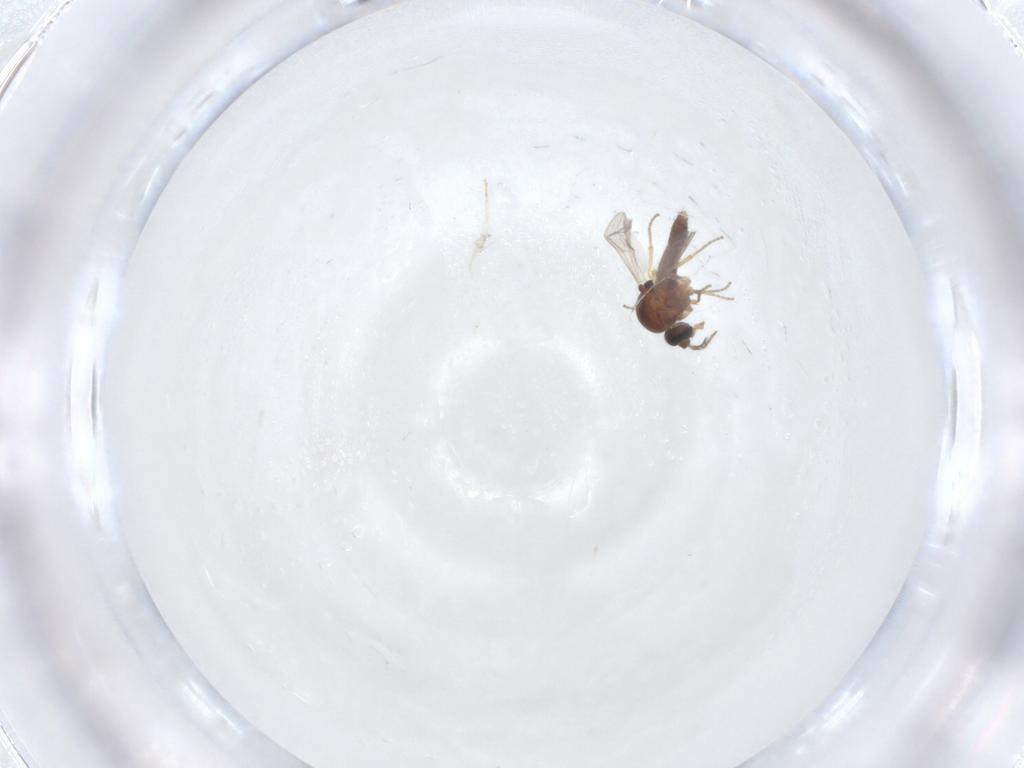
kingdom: Animalia
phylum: Arthropoda
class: Insecta
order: Diptera
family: Ceratopogonidae
